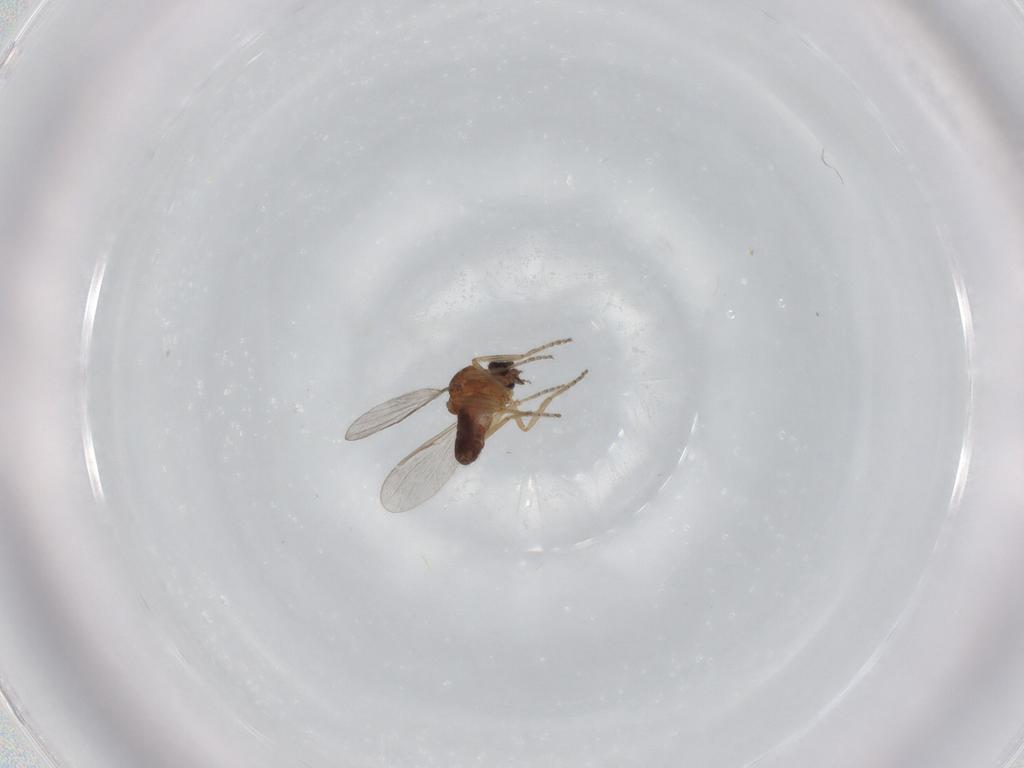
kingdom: Animalia
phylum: Arthropoda
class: Insecta
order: Diptera
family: Ceratopogonidae
